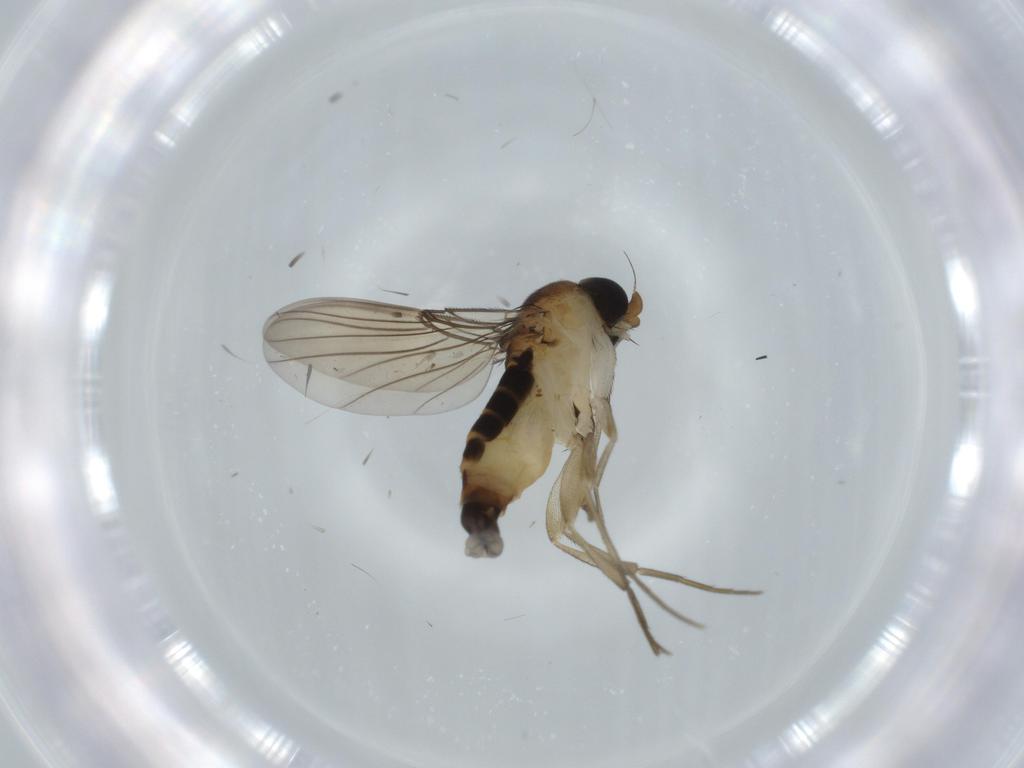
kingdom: Animalia
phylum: Arthropoda
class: Insecta
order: Diptera
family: Phoridae
